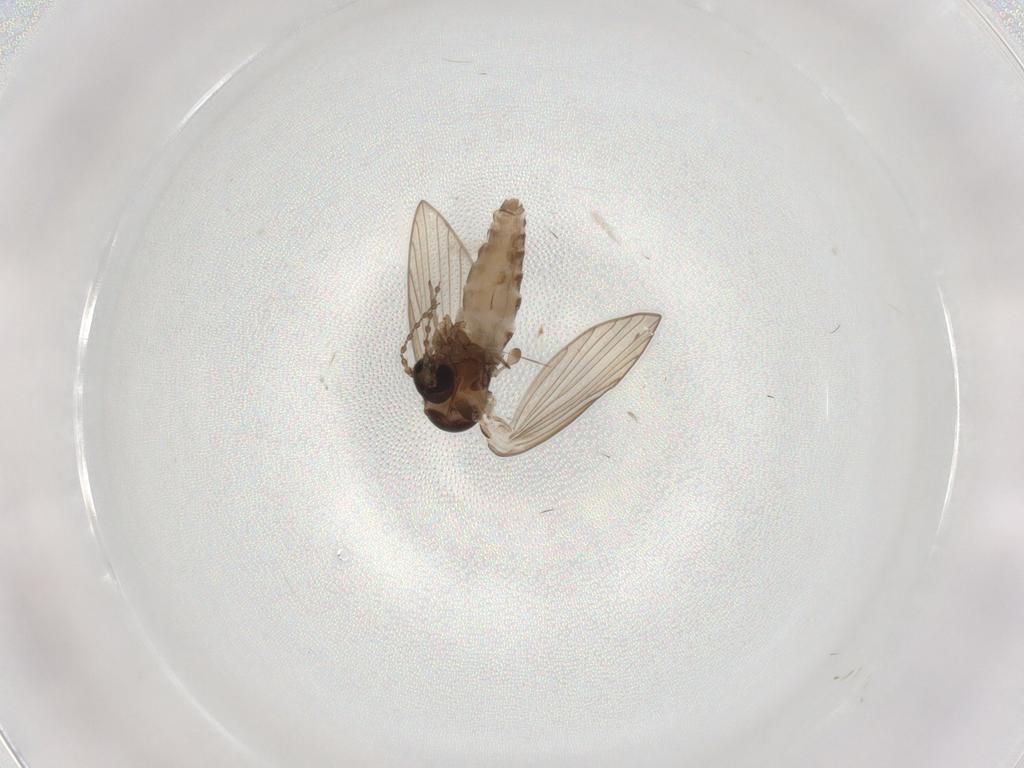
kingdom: Animalia
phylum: Arthropoda
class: Insecta
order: Diptera
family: Psychodidae
